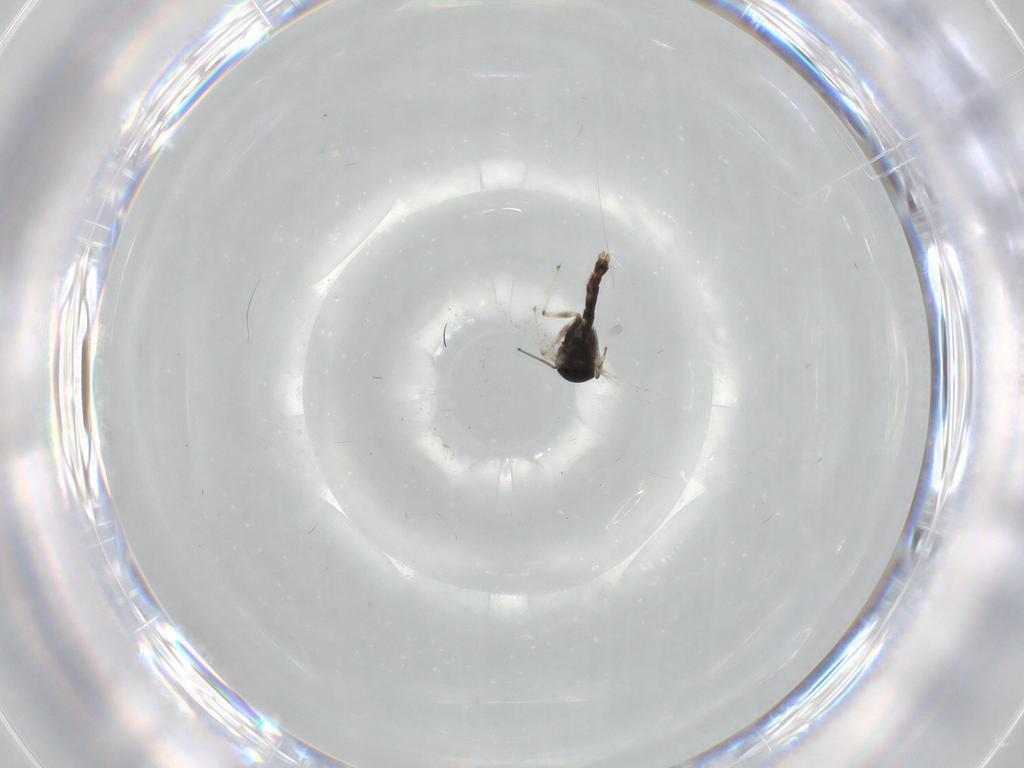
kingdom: Animalia
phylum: Arthropoda
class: Insecta
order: Diptera
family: Chironomidae
